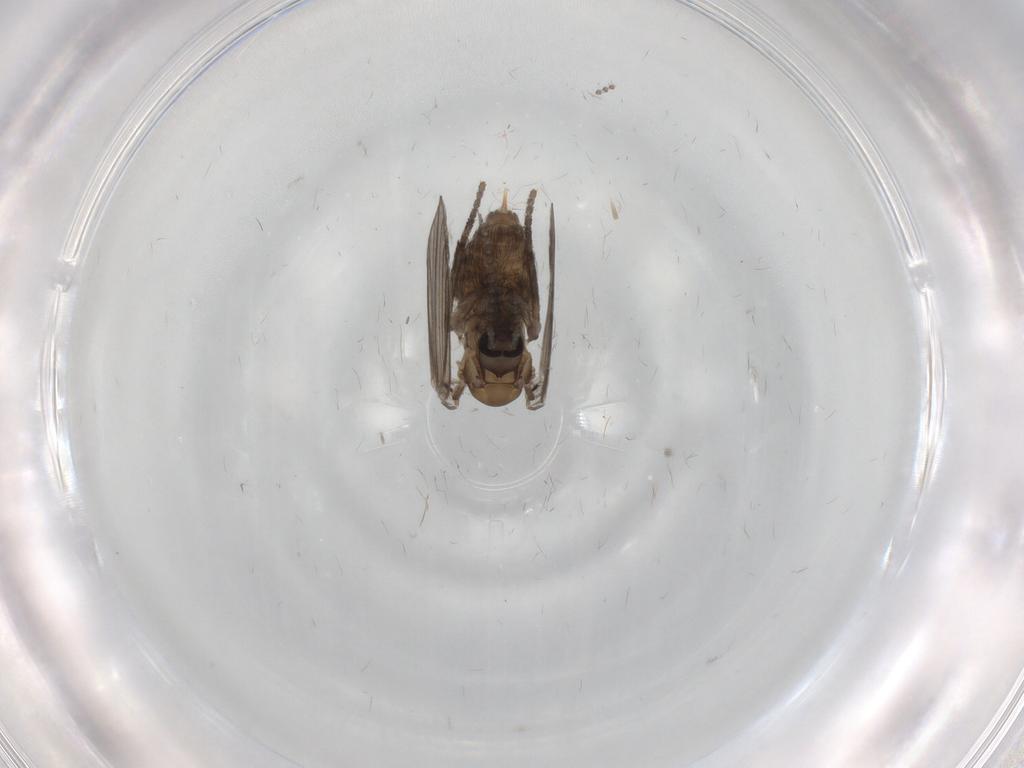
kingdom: Animalia
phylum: Arthropoda
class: Insecta
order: Diptera
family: Psychodidae
